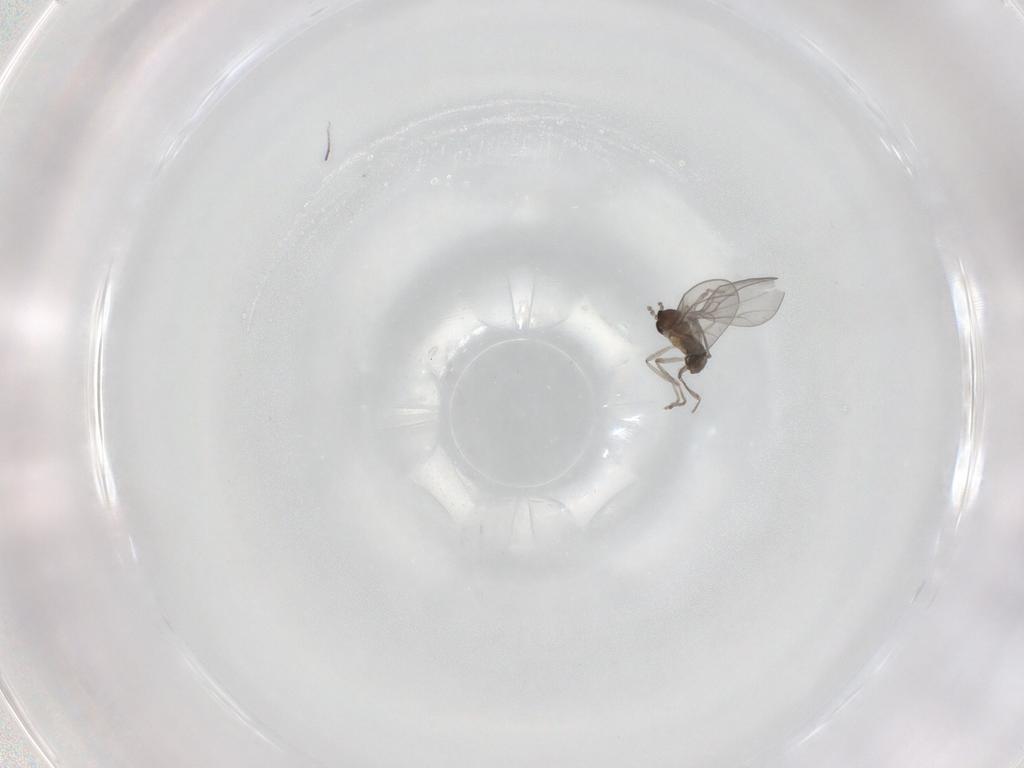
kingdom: Animalia
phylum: Arthropoda
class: Insecta
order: Diptera
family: Cecidomyiidae
